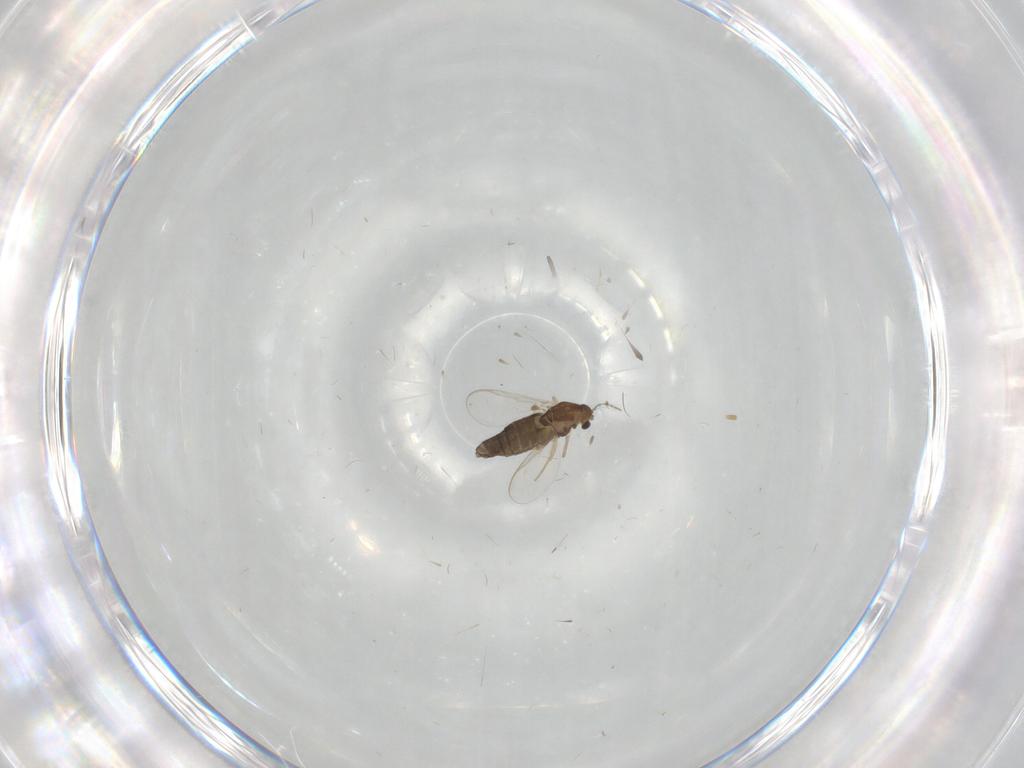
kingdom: Animalia
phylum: Arthropoda
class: Insecta
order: Diptera
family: Chironomidae
